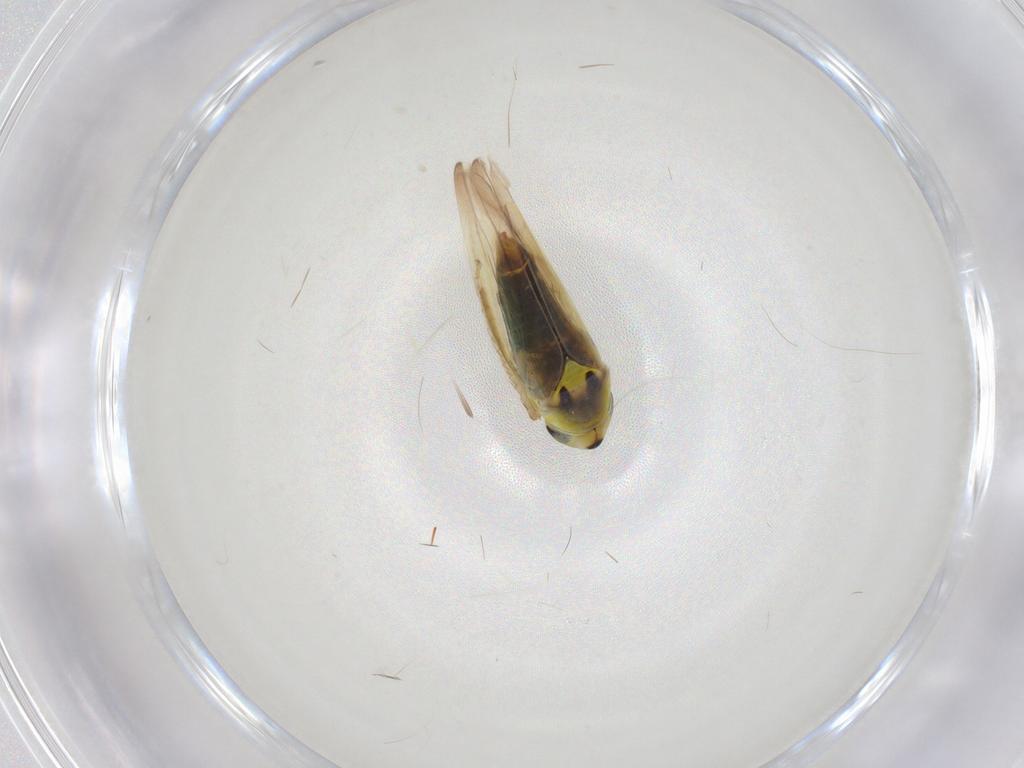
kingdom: Animalia
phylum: Arthropoda
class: Insecta
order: Hemiptera
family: Cicadellidae
